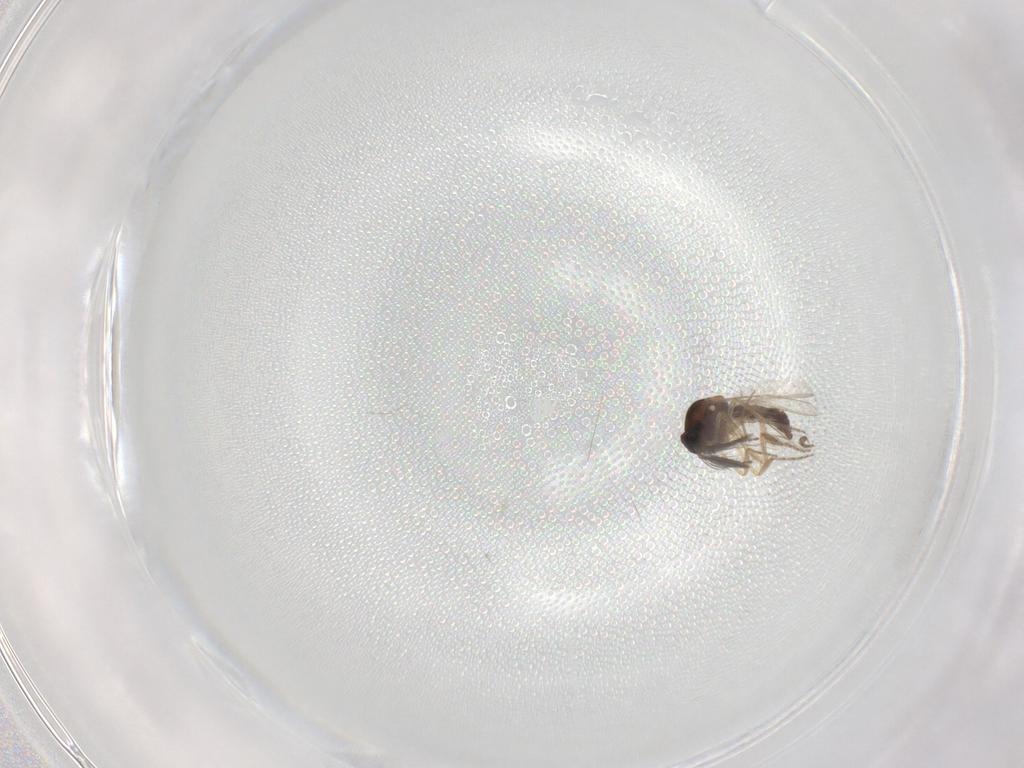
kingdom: Animalia
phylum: Arthropoda
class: Insecta
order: Diptera
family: Ceratopogonidae
